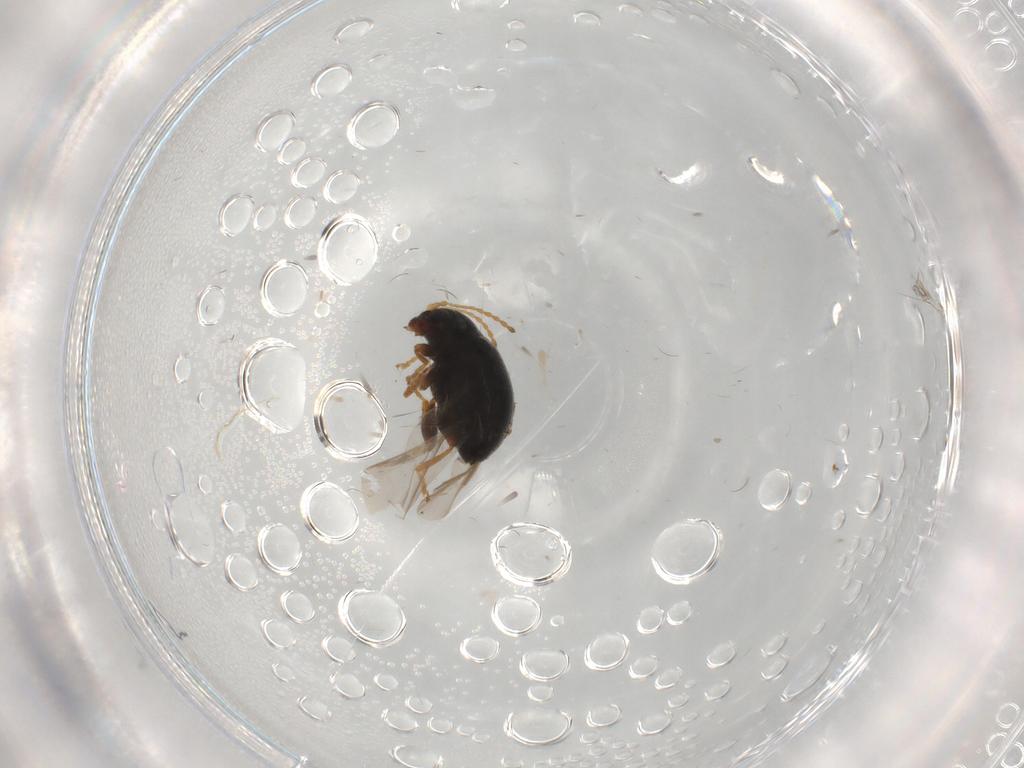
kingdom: Animalia
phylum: Arthropoda
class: Insecta
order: Coleoptera
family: Chrysomelidae
